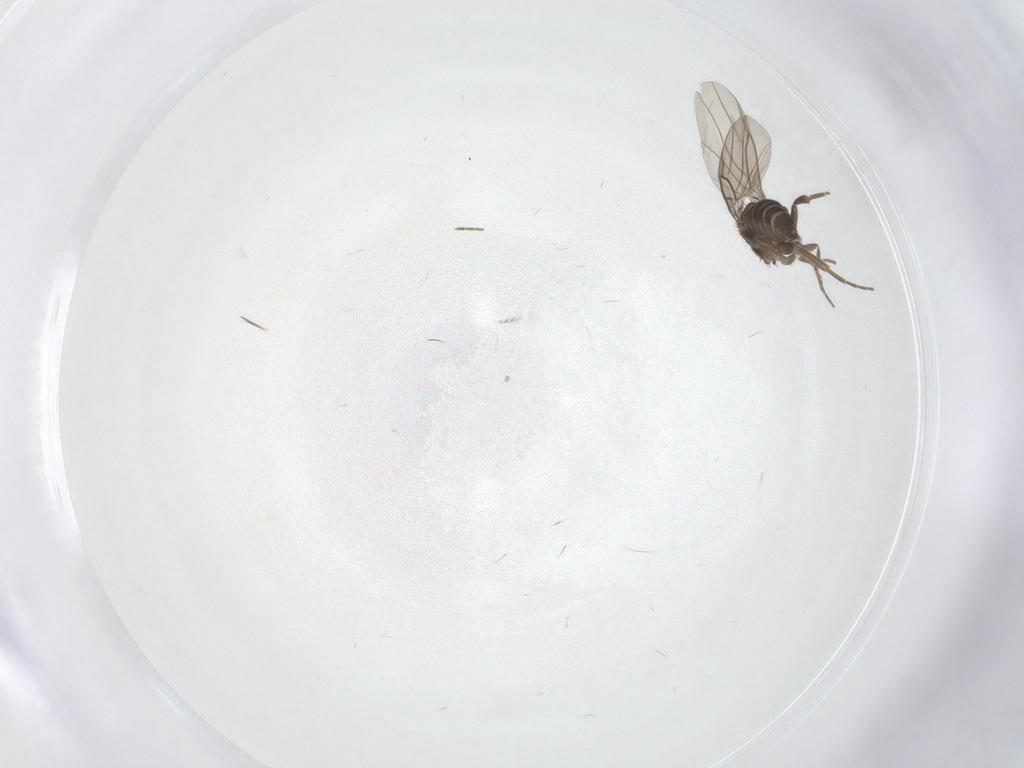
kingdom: Animalia
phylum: Arthropoda
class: Insecta
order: Diptera
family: Phoridae
